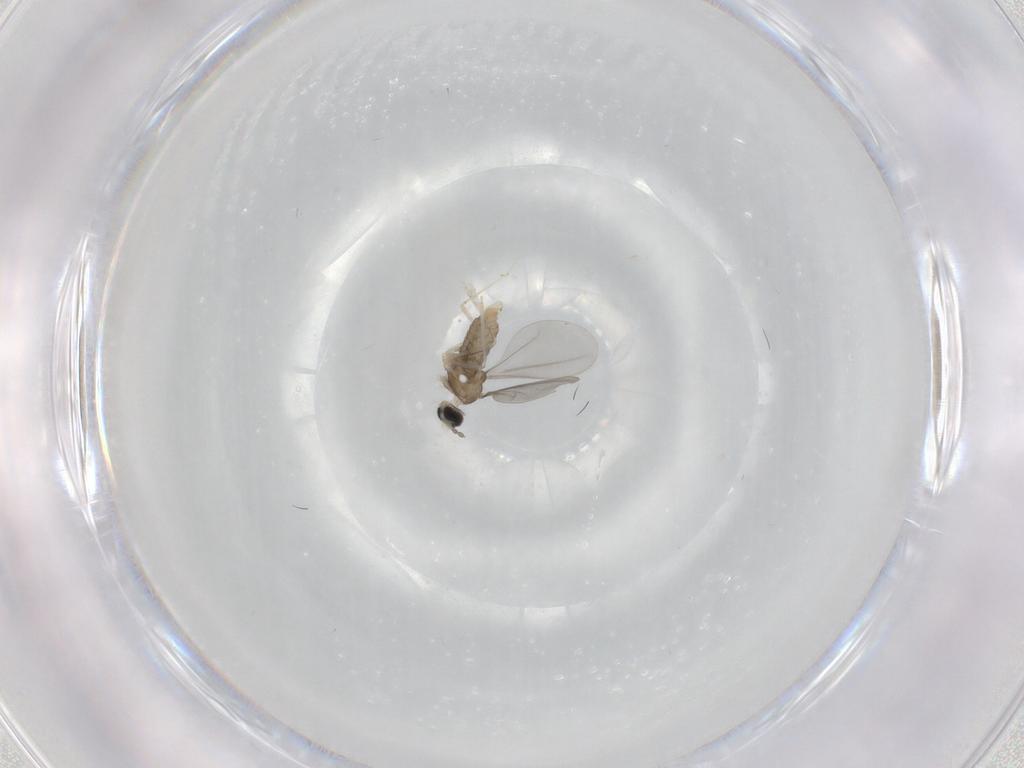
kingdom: Animalia
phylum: Arthropoda
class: Insecta
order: Diptera
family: Cecidomyiidae
